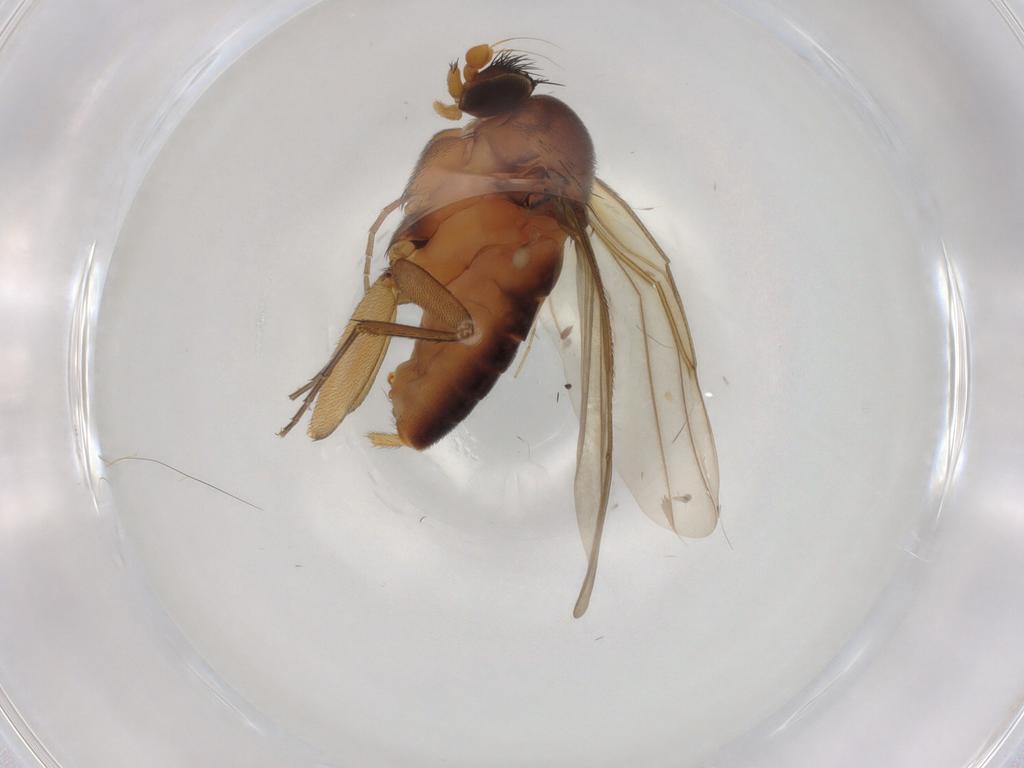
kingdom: Animalia
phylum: Arthropoda
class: Insecta
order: Diptera
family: Phoridae
